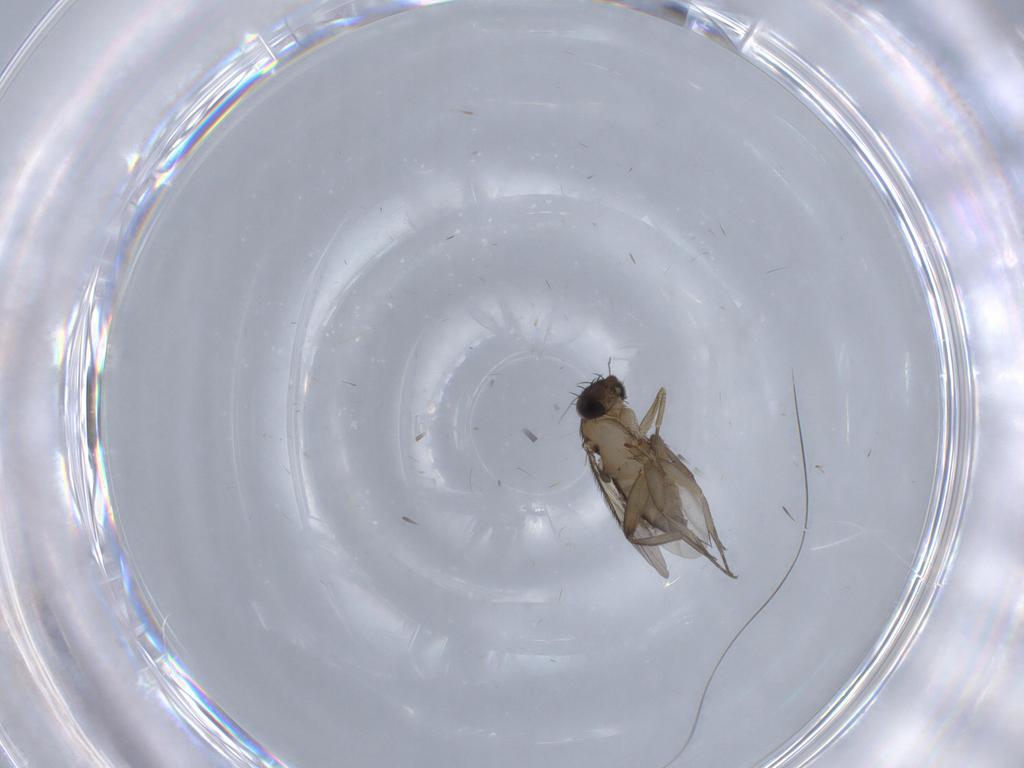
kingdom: Animalia
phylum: Arthropoda
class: Insecta
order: Diptera
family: Phoridae
